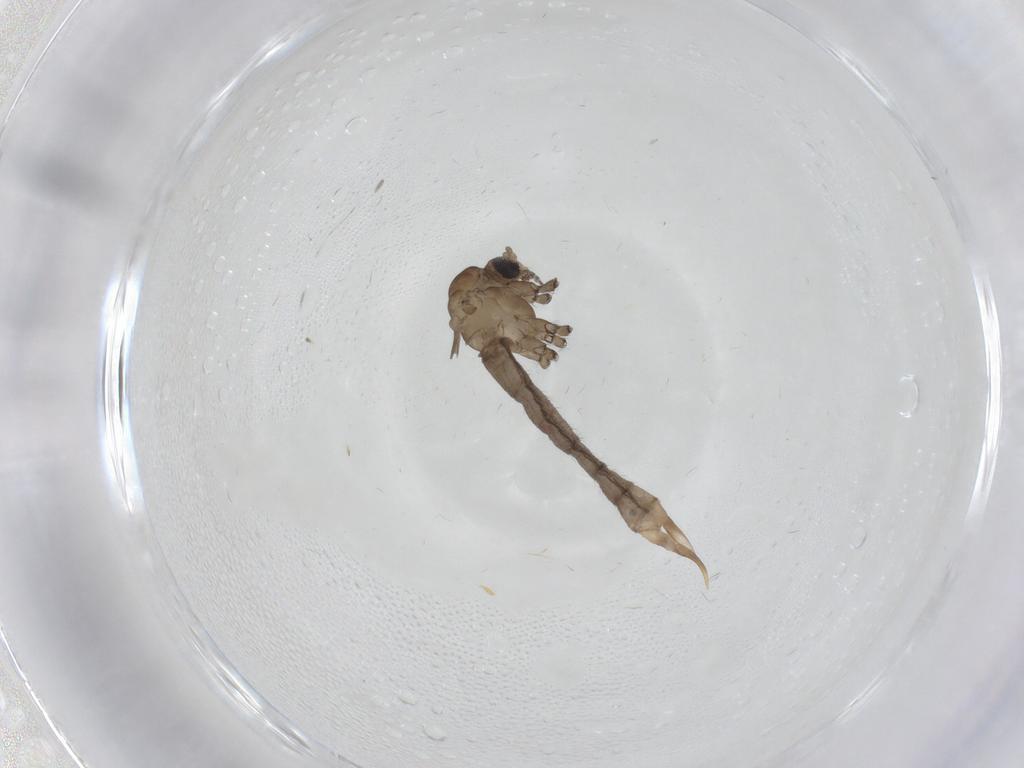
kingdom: Animalia
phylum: Arthropoda
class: Insecta
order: Diptera
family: Limoniidae
